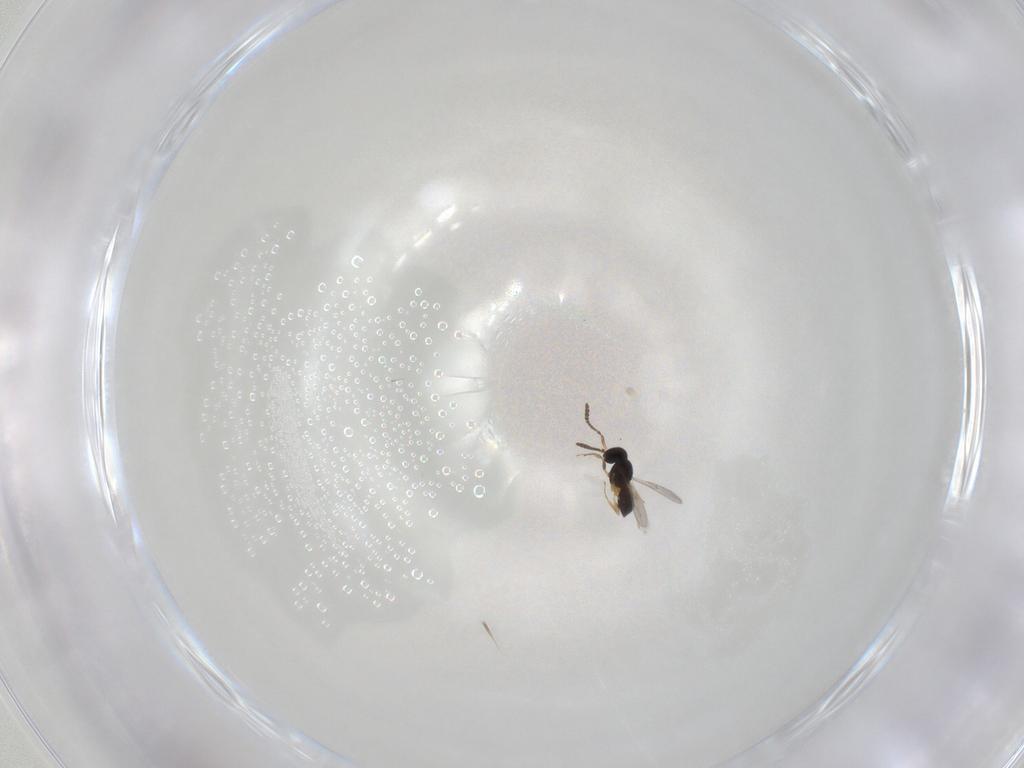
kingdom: Animalia
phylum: Arthropoda
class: Insecta
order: Hymenoptera
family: Scelionidae
